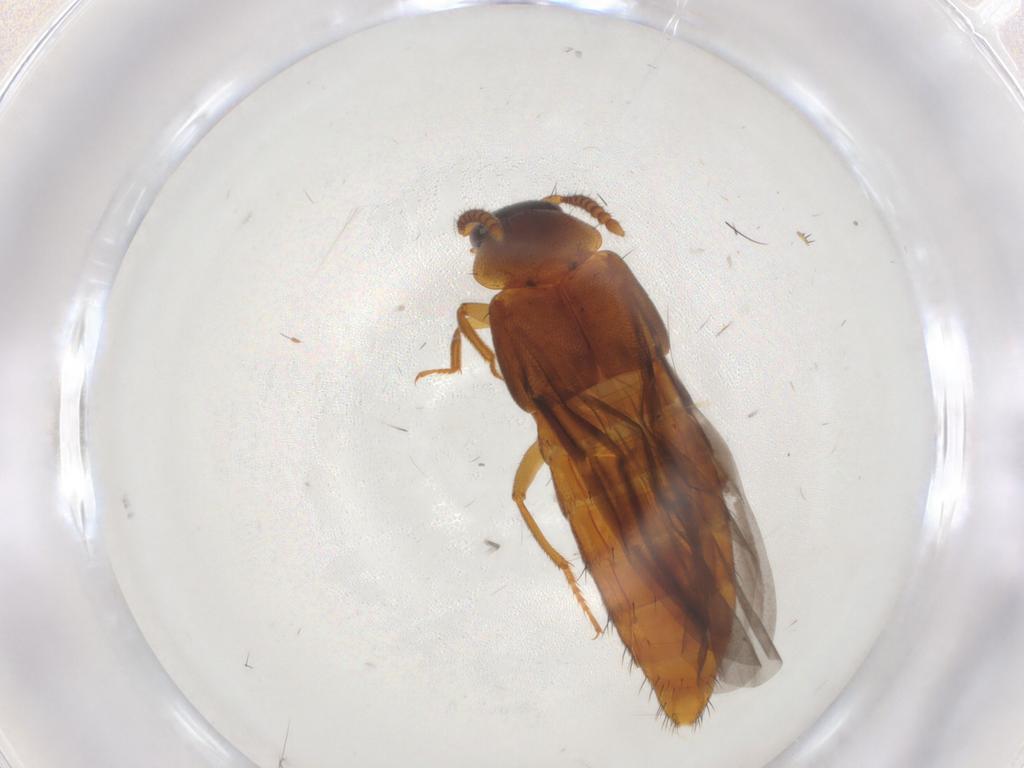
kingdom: Animalia
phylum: Arthropoda
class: Insecta
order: Coleoptera
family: Staphylinidae
